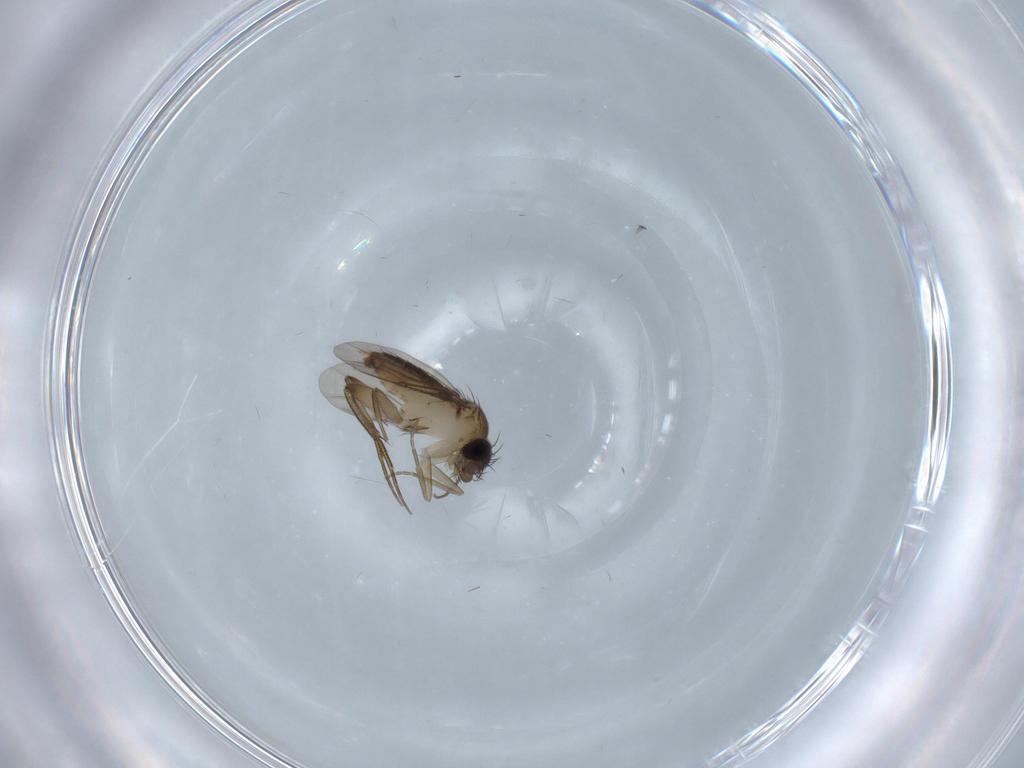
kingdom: Animalia
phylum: Arthropoda
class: Insecta
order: Diptera
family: Phoridae
